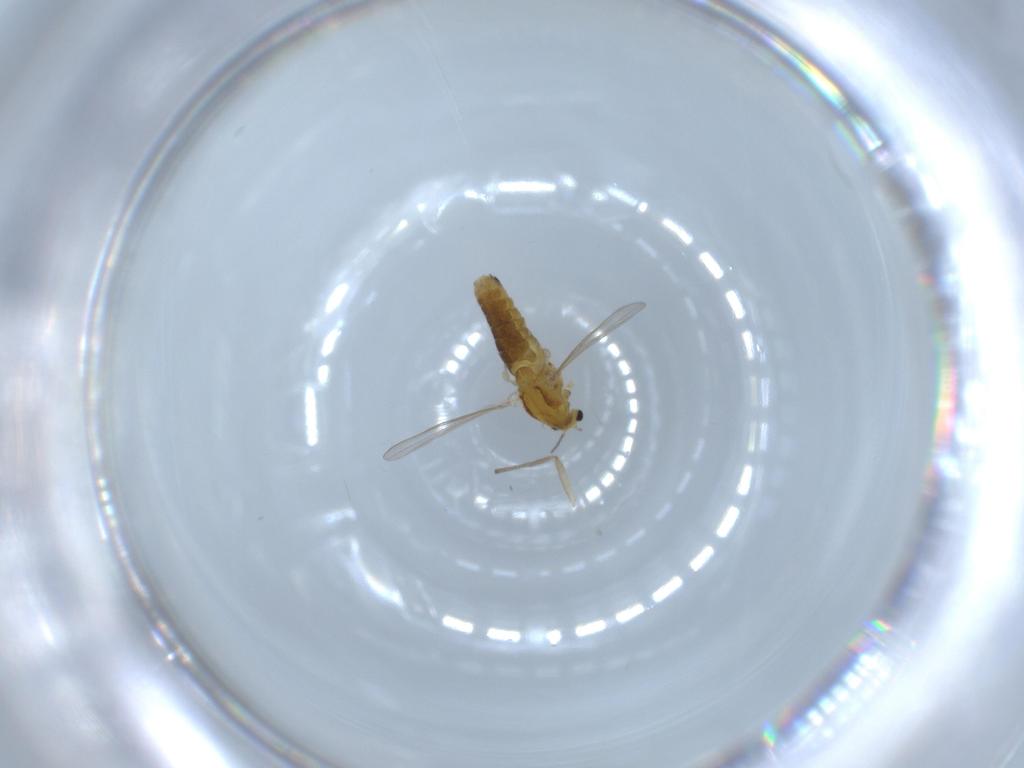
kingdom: Animalia
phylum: Arthropoda
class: Insecta
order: Diptera
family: Chironomidae
